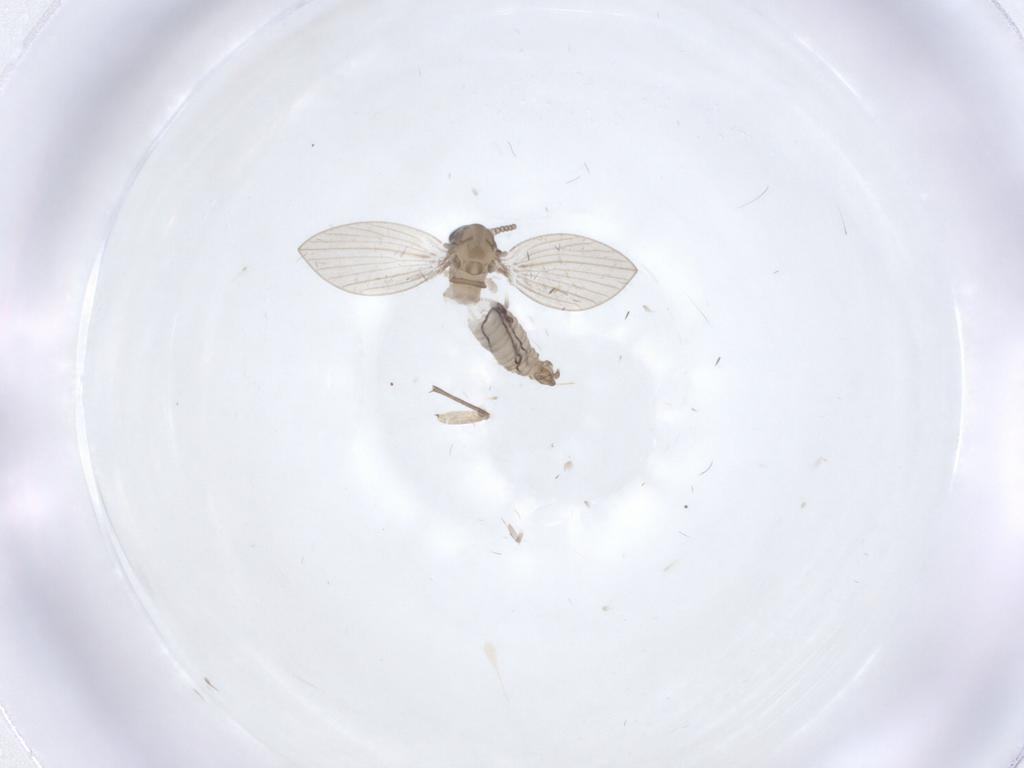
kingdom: Animalia
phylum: Arthropoda
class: Insecta
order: Diptera
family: Psychodidae
